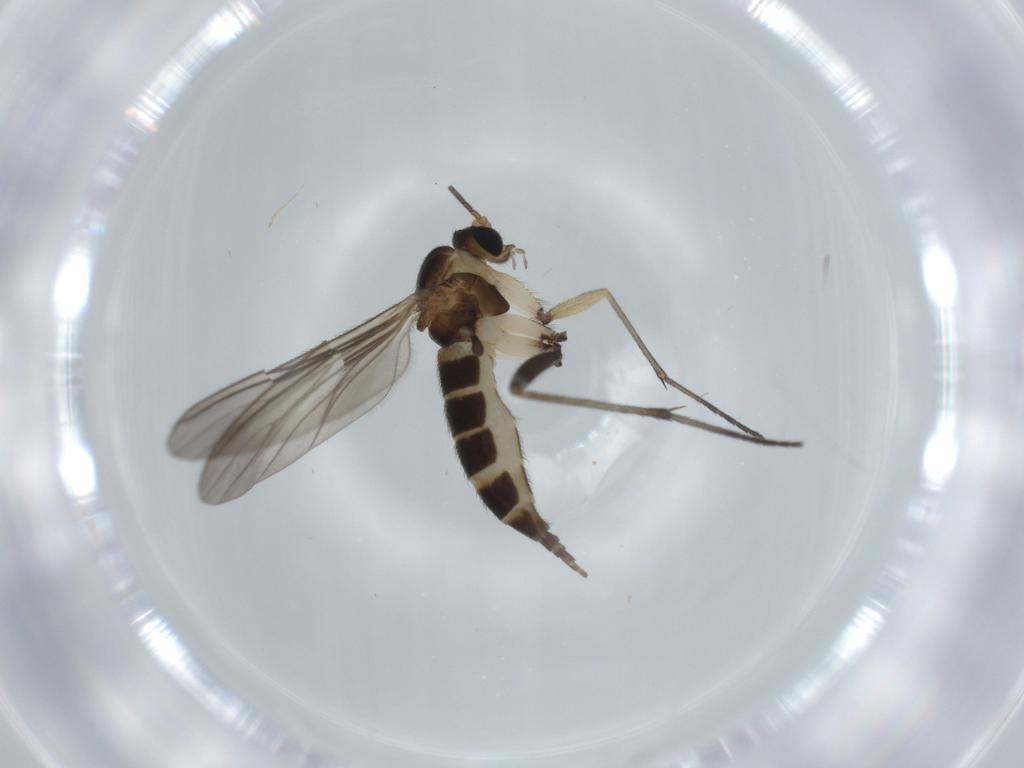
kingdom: Animalia
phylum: Arthropoda
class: Insecta
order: Diptera
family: Sciaridae
